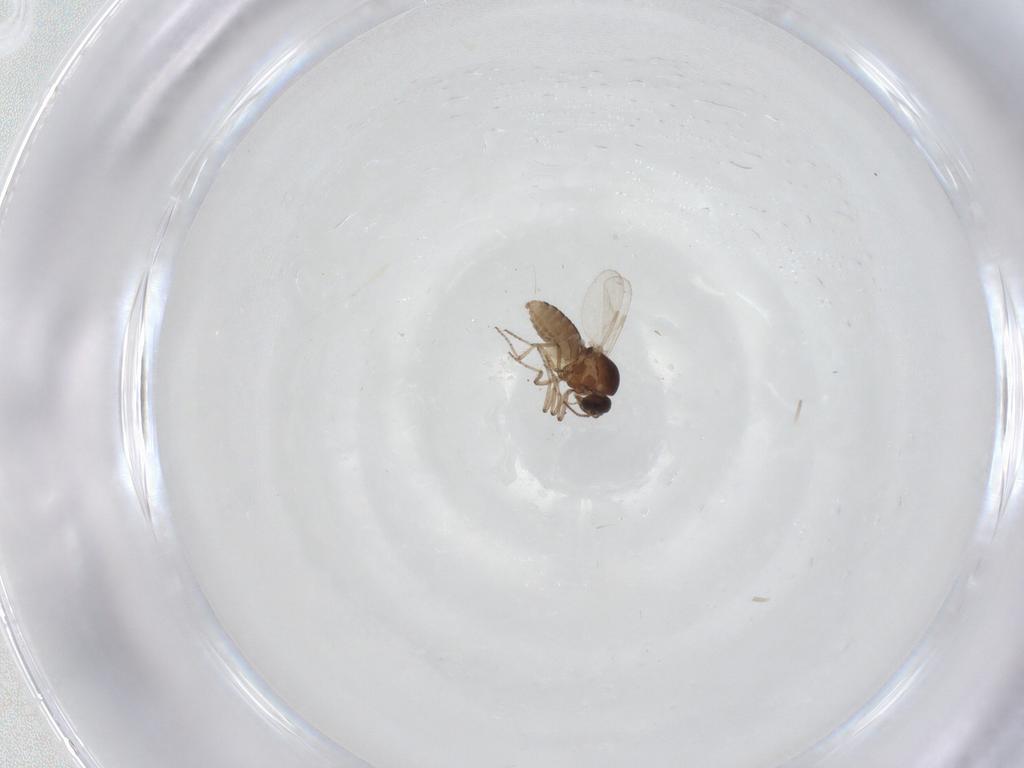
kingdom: Animalia
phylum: Arthropoda
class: Insecta
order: Diptera
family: Ceratopogonidae
